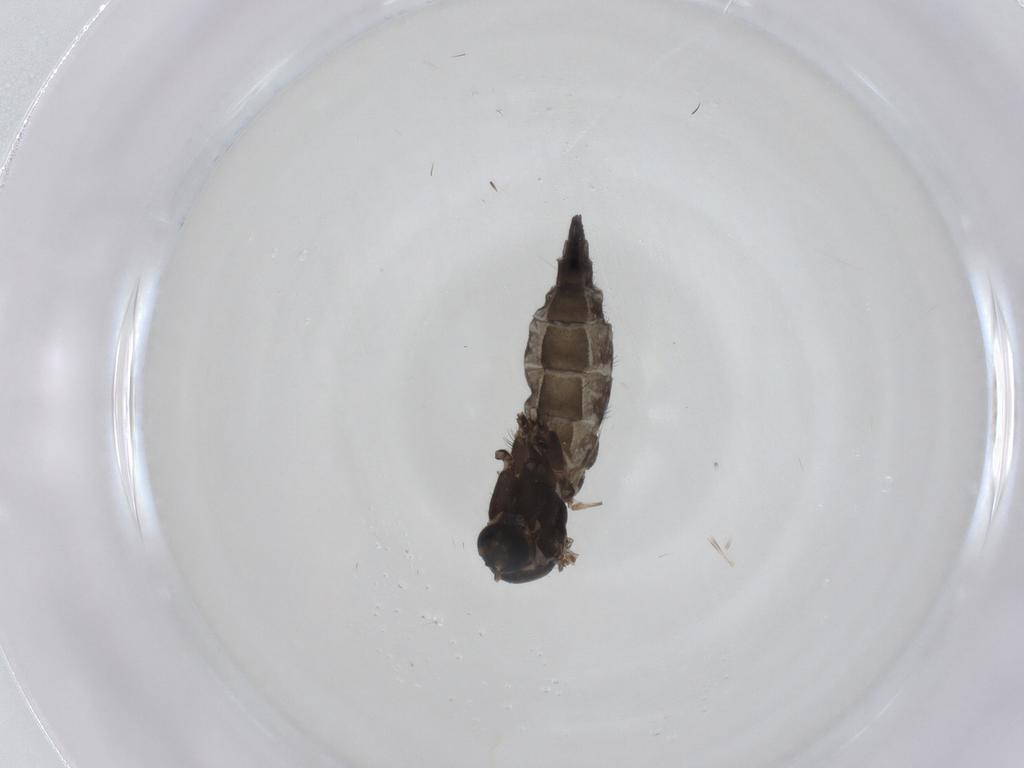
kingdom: Animalia
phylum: Arthropoda
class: Insecta
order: Diptera
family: Sciaridae
